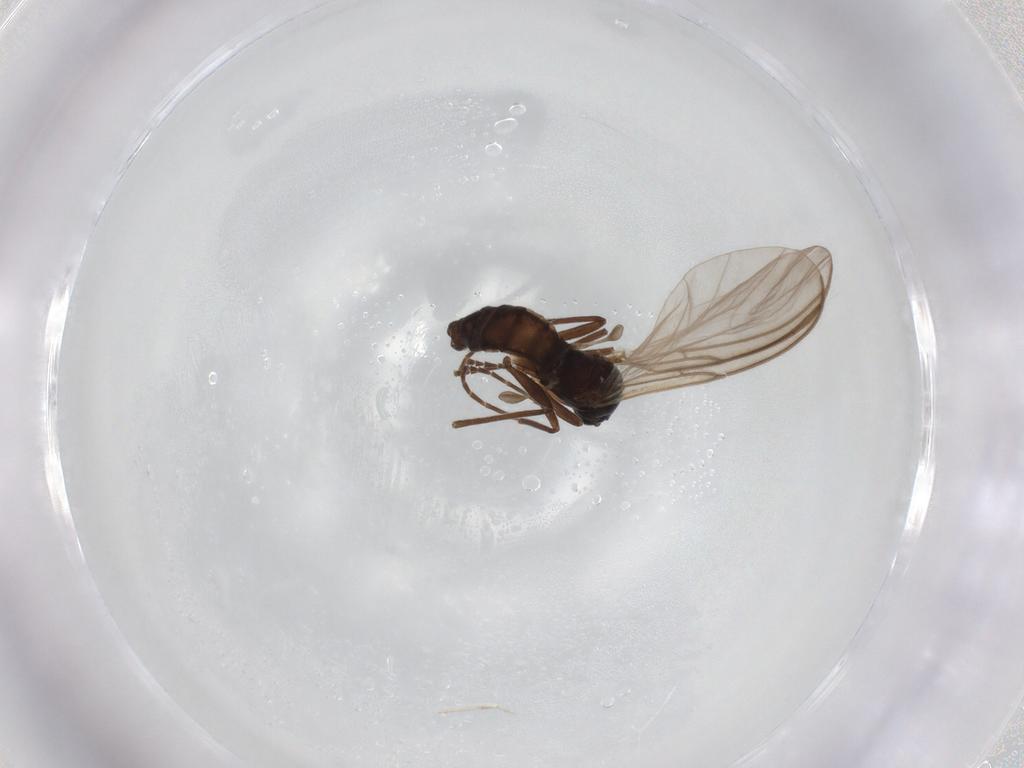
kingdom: Animalia
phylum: Arthropoda
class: Insecta
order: Diptera
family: Sciaridae
